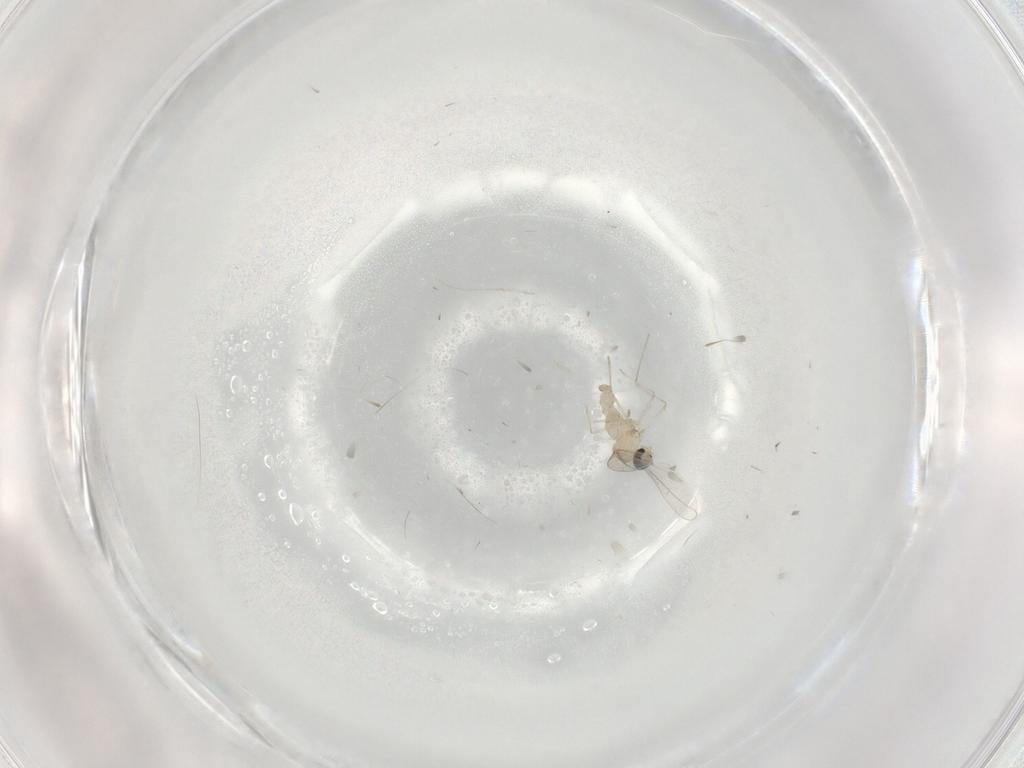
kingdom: Animalia
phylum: Arthropoda
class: Insecta
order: Diptera
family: Cecidomyiidae
